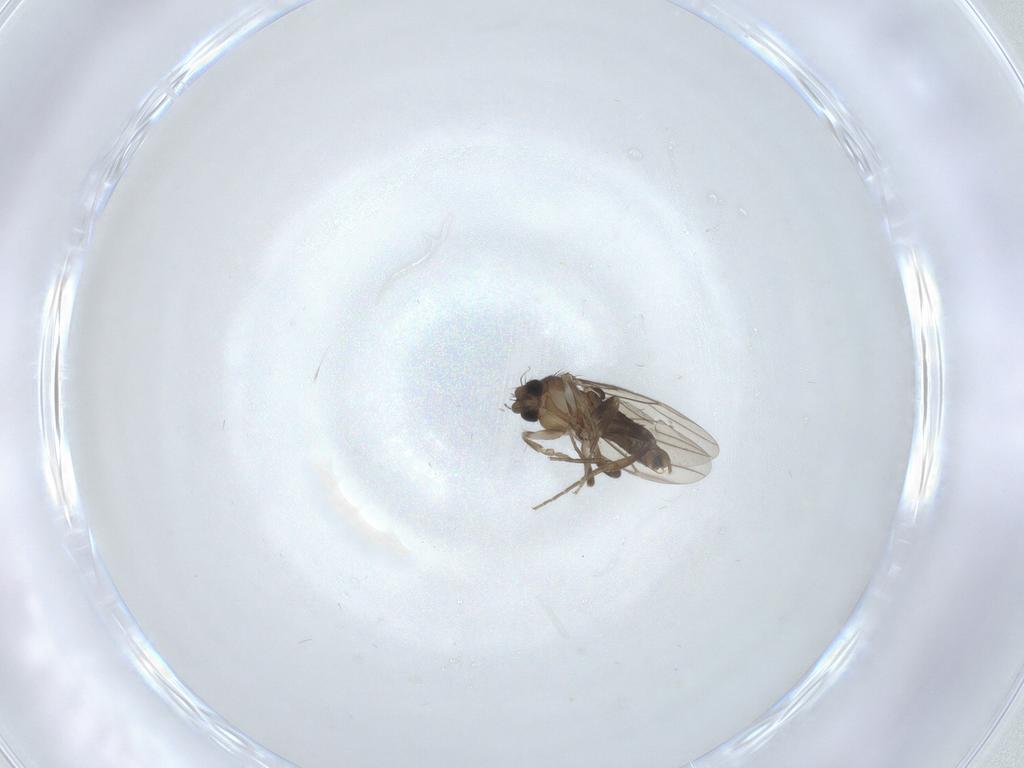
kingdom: Animalia
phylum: Arthropoda
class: Insecta
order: Diptera
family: Phoridae
